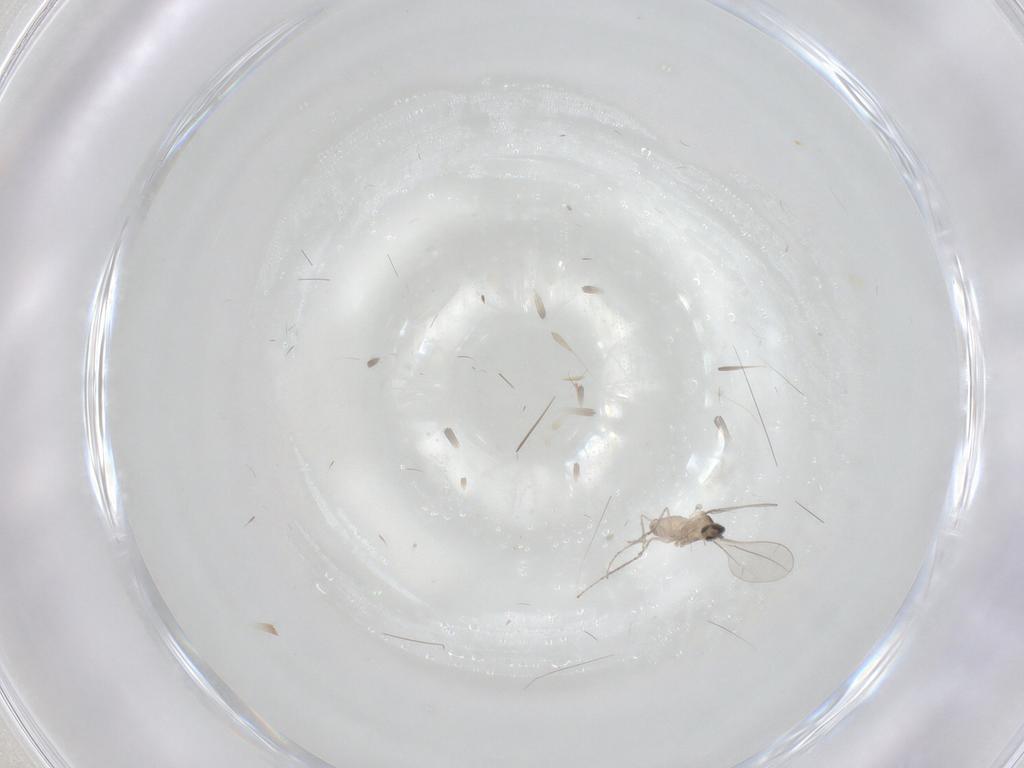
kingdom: Animalia
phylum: Arthropoda
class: Insecta
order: Diptera
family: Cecidomyiidae
